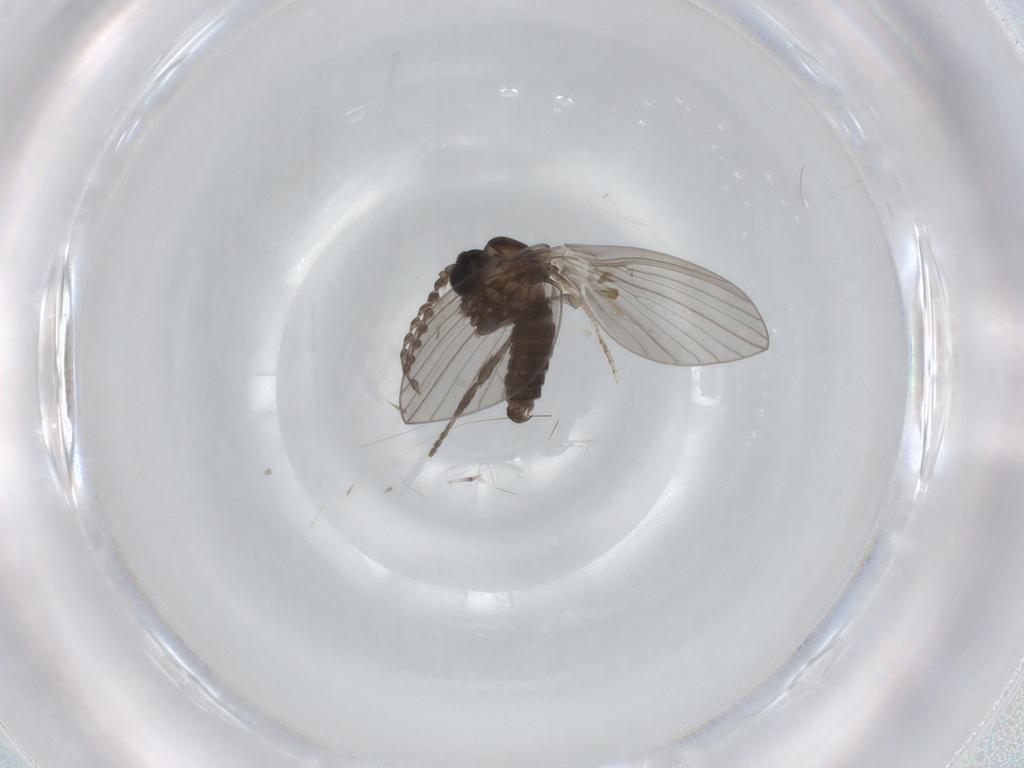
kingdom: Animalia
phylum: Arthropoda
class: Insecta
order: Diptera
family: Psychodidae
